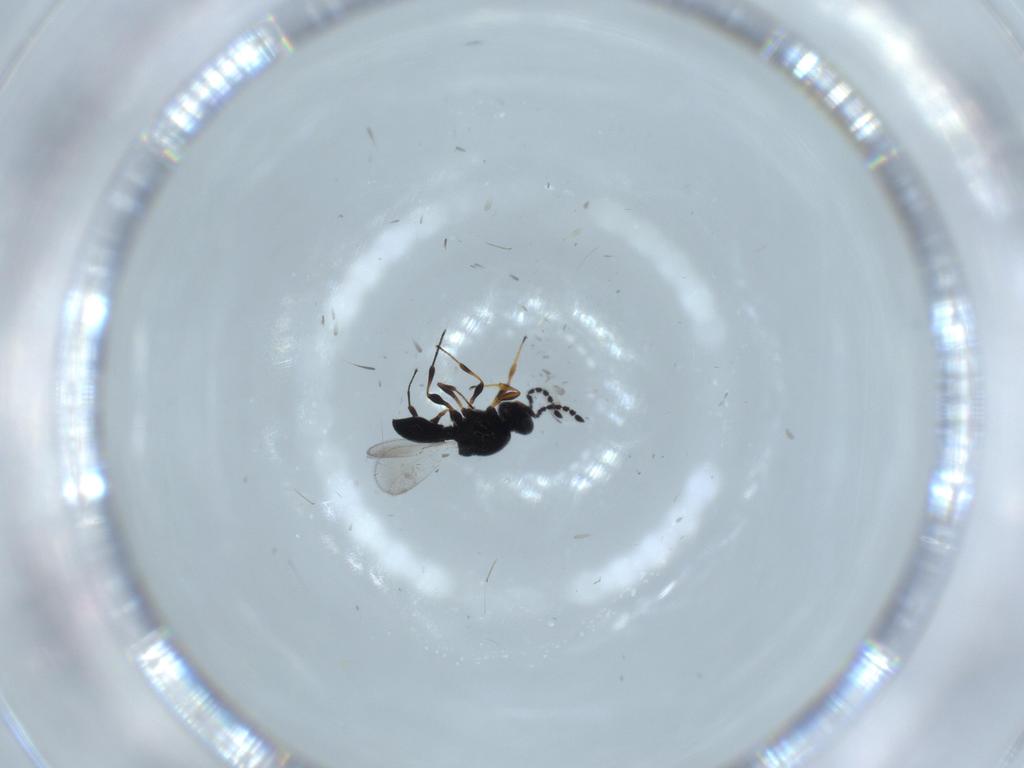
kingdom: Animalia
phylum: Arthropoda
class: Insecta
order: Hymenoptera
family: Platygastridae
